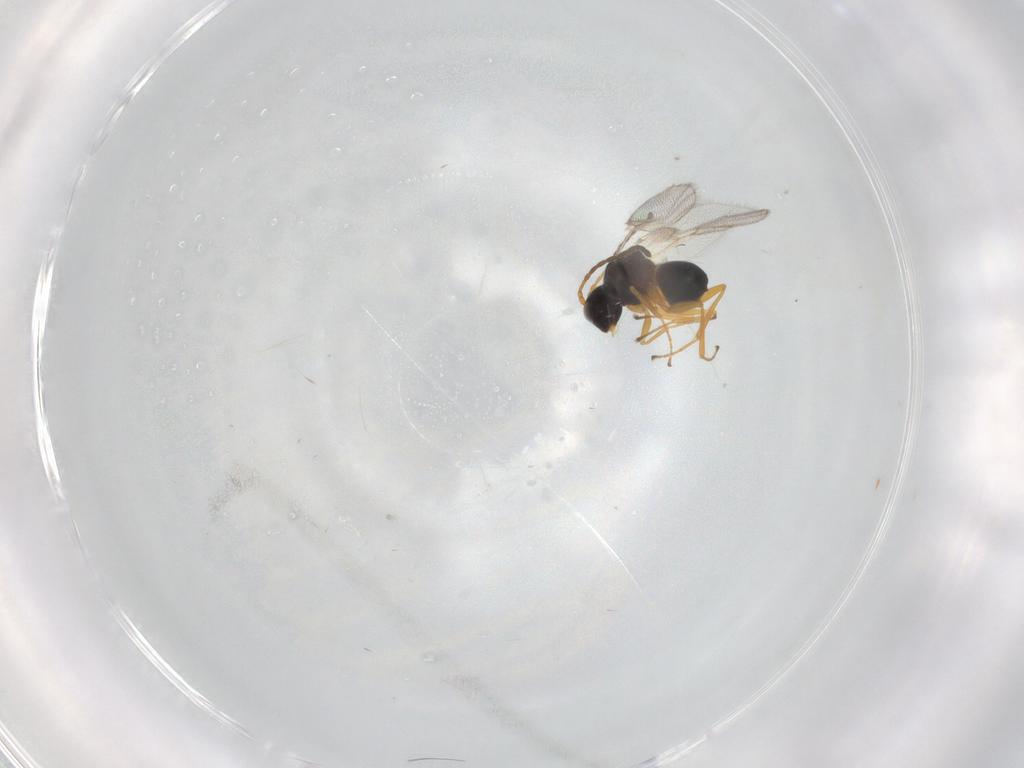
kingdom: Animalia
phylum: Arthropoda
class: Insecta
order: Hymenoptera
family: Figitidae
